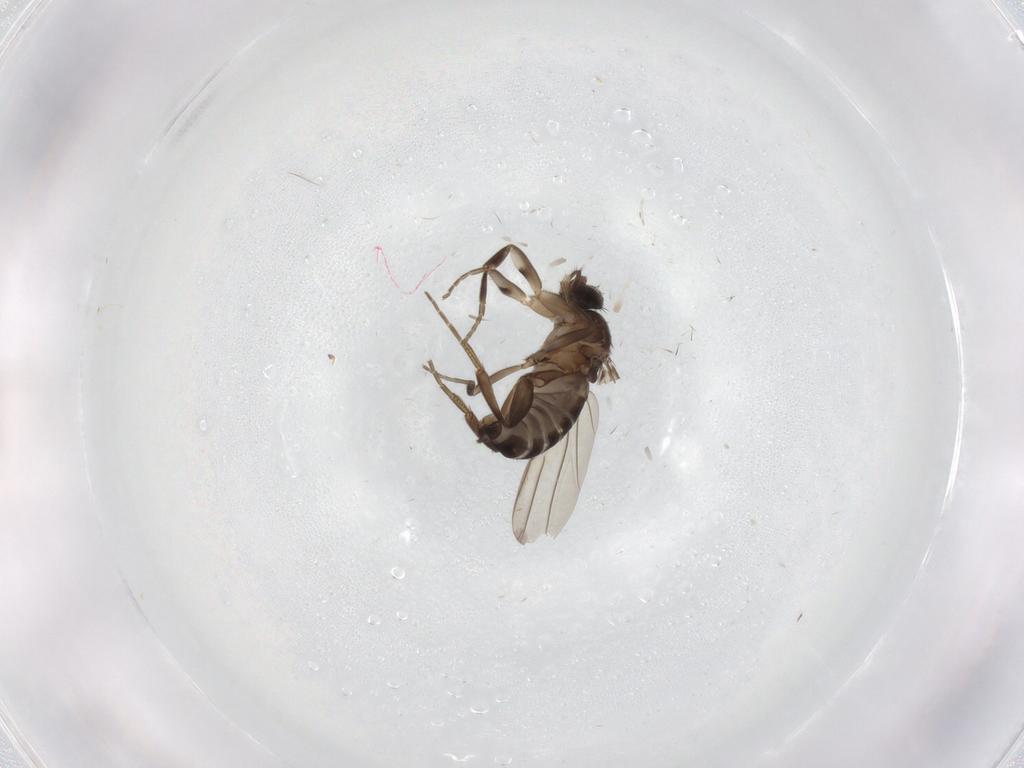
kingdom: Animalia
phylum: Arthropoda
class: Insecta
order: Diptera
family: Phoridae
